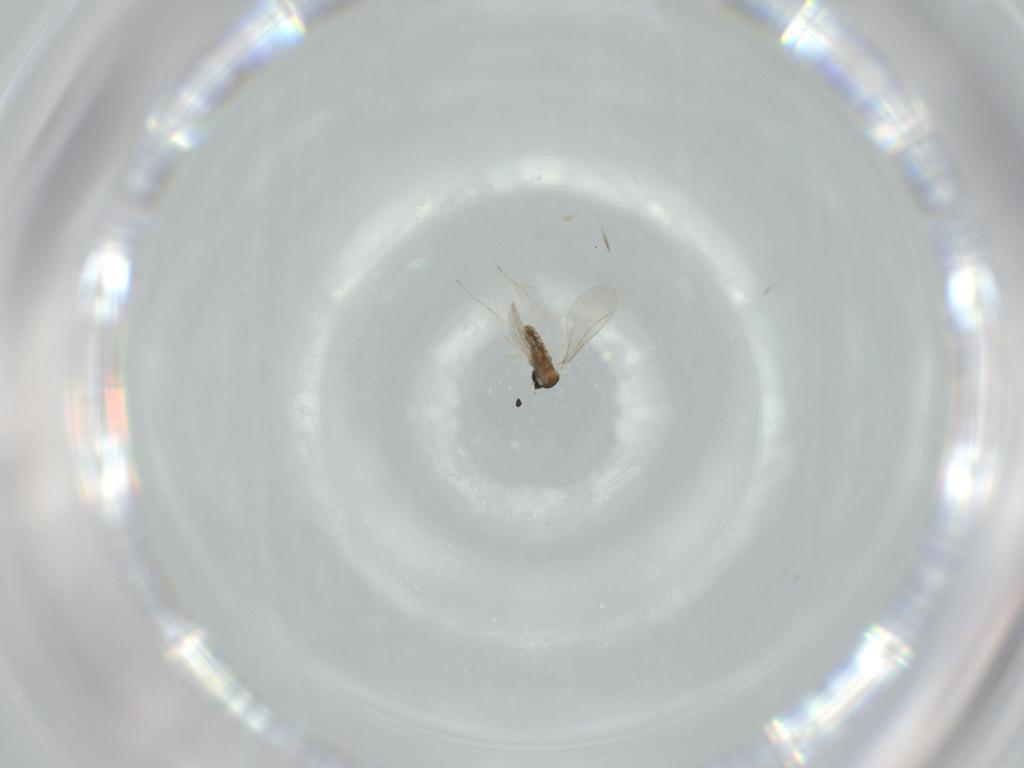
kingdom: Animalia
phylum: Arthropoda
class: Insecta
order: Diptera
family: Cecidomyiidae
